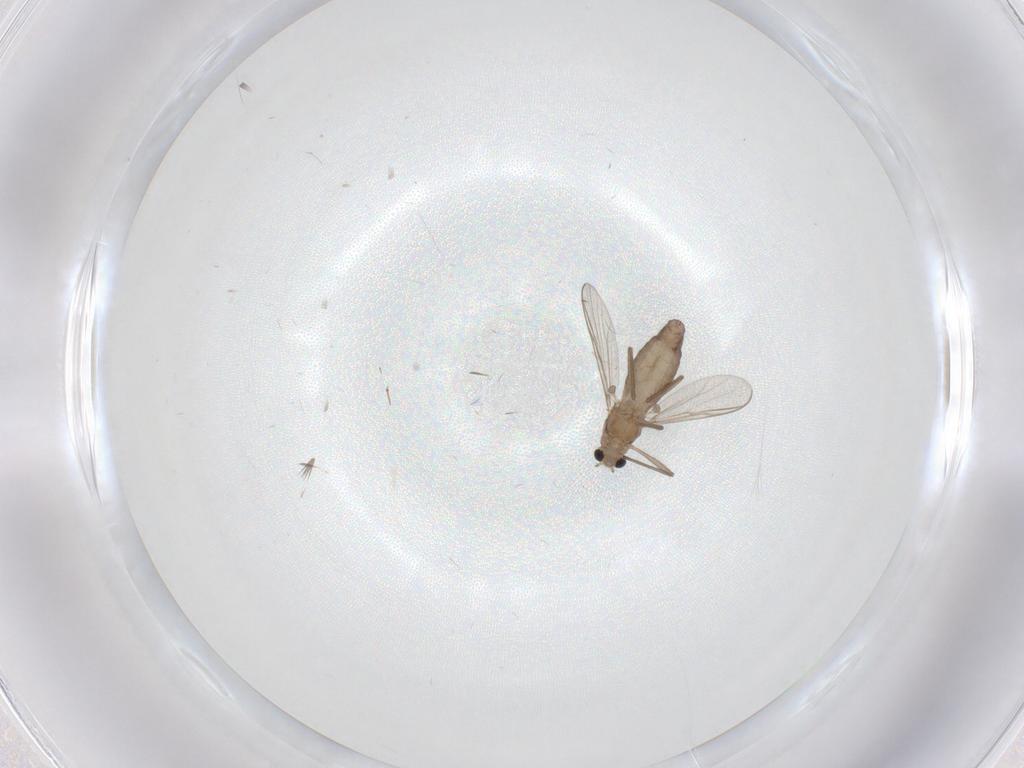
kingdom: Animalia
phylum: Arthropoda
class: Insecta
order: Diptera
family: Chironomidae
